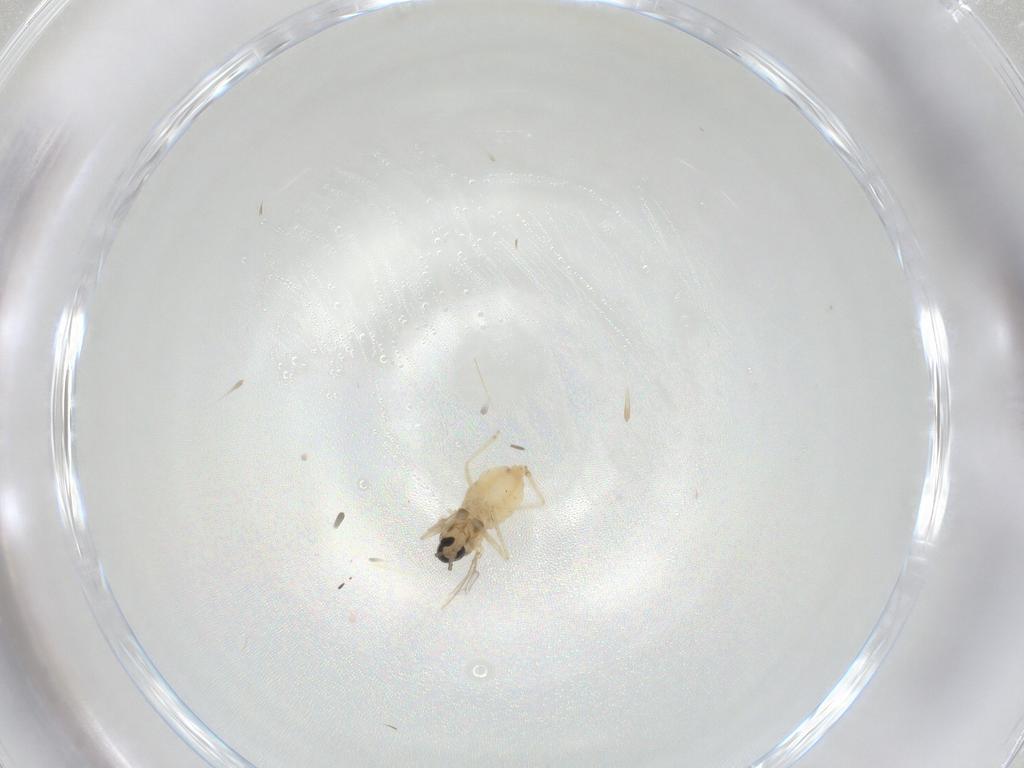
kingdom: Animalia
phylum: Arthropoda
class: Insecta
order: Diptera
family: Cecidomyiidae
